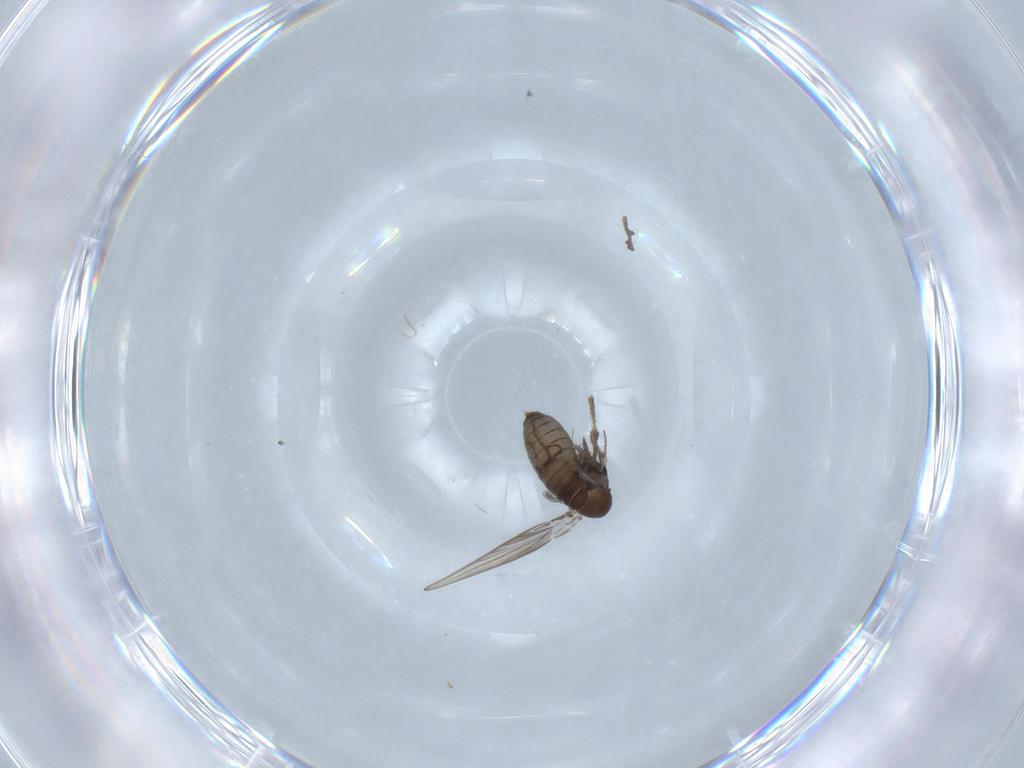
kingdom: Animalia
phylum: Arthropoda
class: Insecta
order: Diptera
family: Psychodidae
